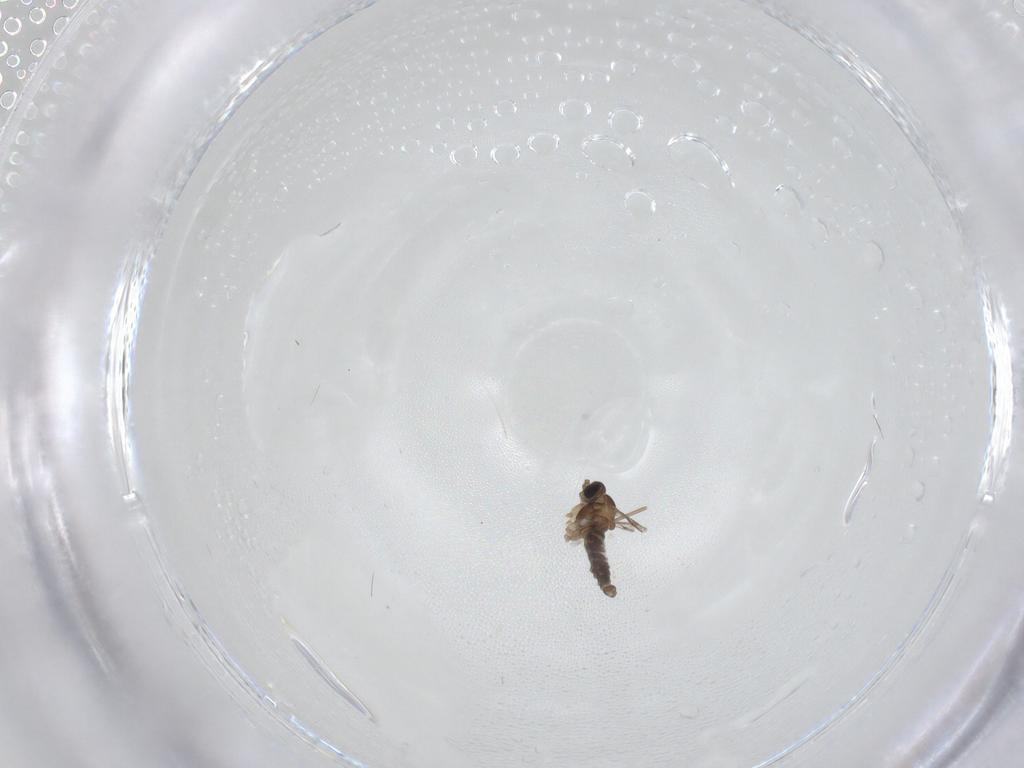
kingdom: Animalia
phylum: Arthropoda
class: Insecta
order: Diptera
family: Cecidomyiidae
